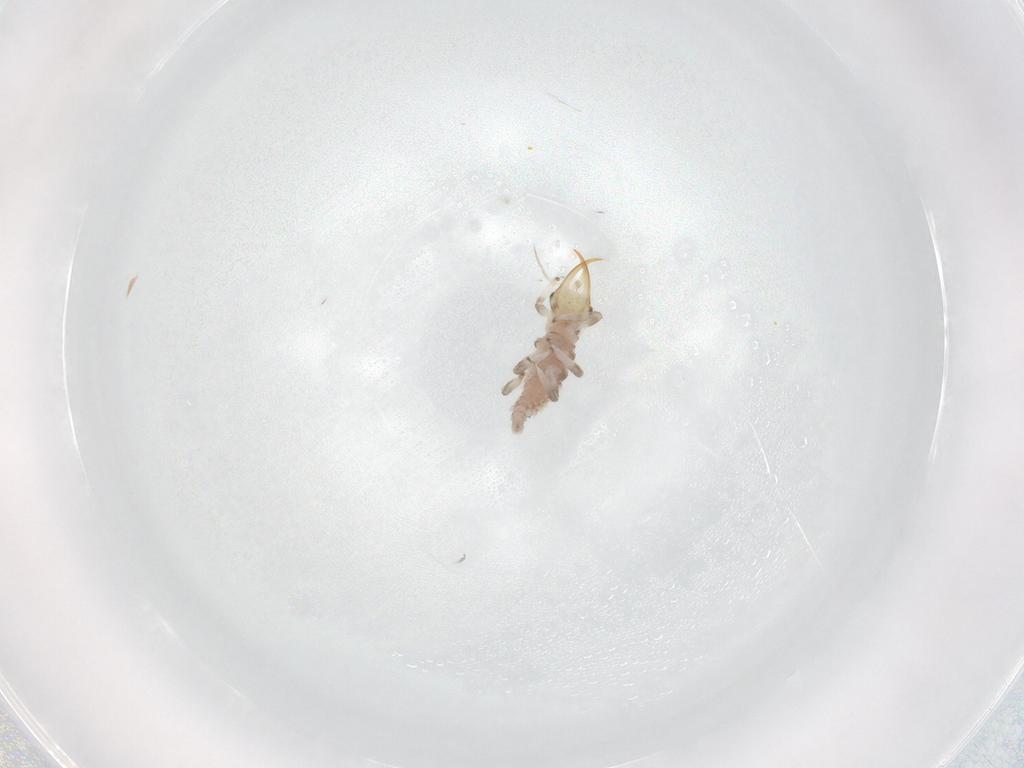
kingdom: Animalia
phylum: Arthropoda
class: Insecta
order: Neuroptera
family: Chrysopidae
